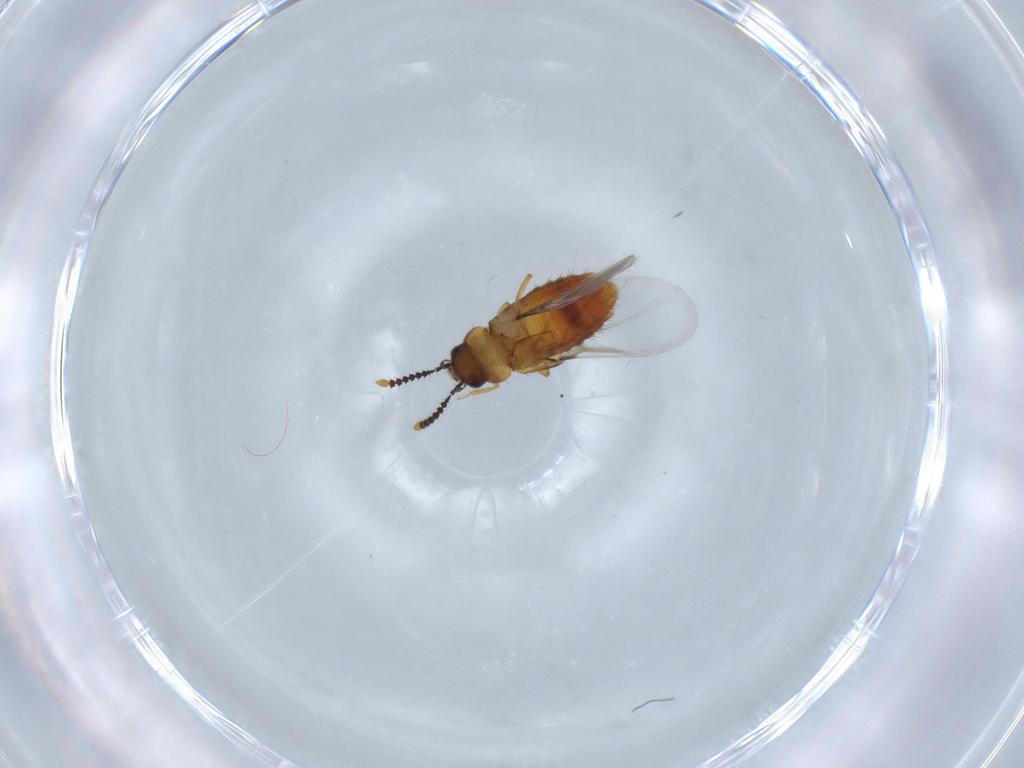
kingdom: Animalia
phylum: Arthropoda
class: Insecta
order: Coleoptera
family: Staphylinidae
